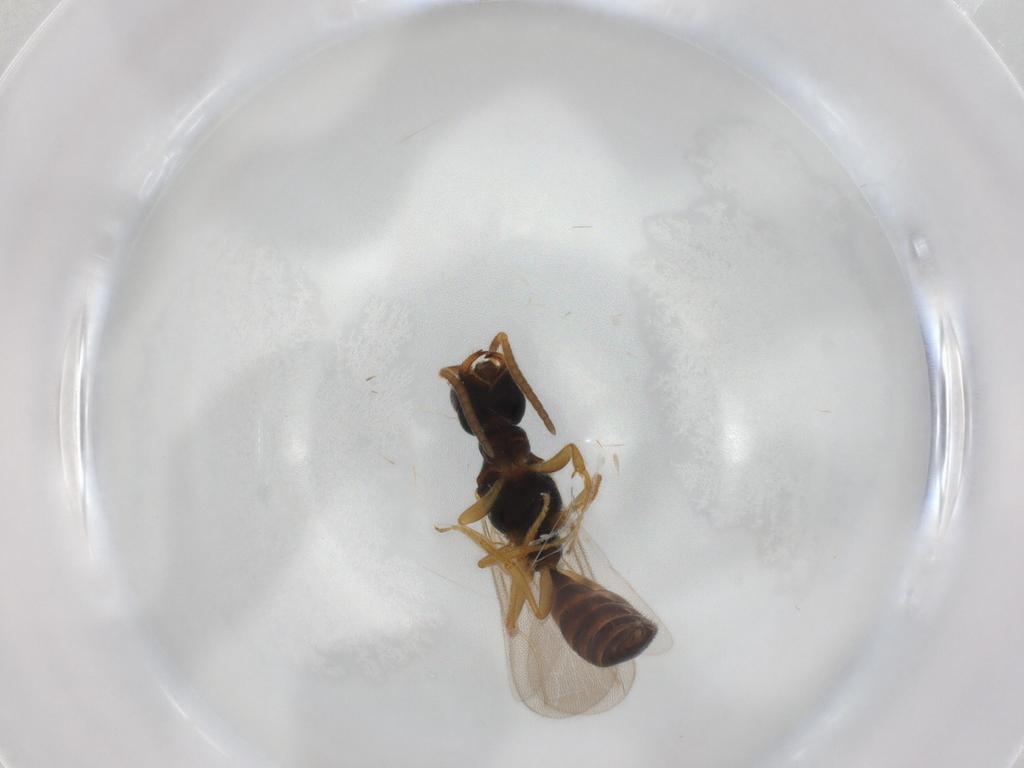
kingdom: Animalia
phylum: Arthropoda
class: Insecta
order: Hymenoptera
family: Bethylidae
